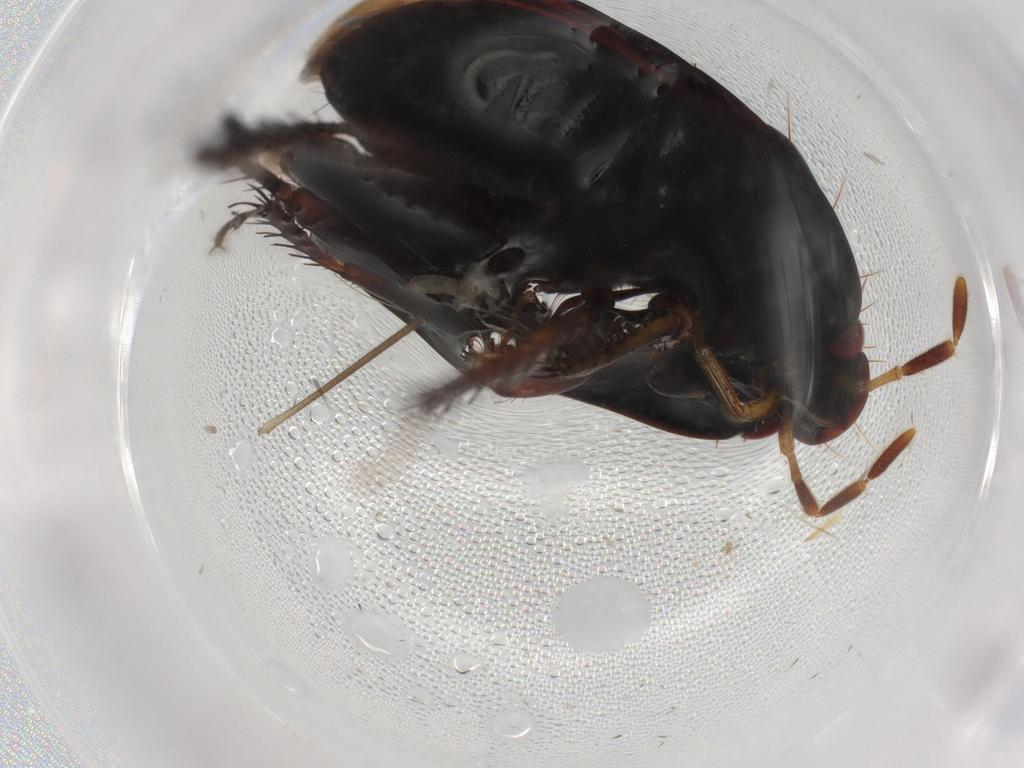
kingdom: Animalia
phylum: Arthropoda
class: Insecta
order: Hemiptera
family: Cydnidae
